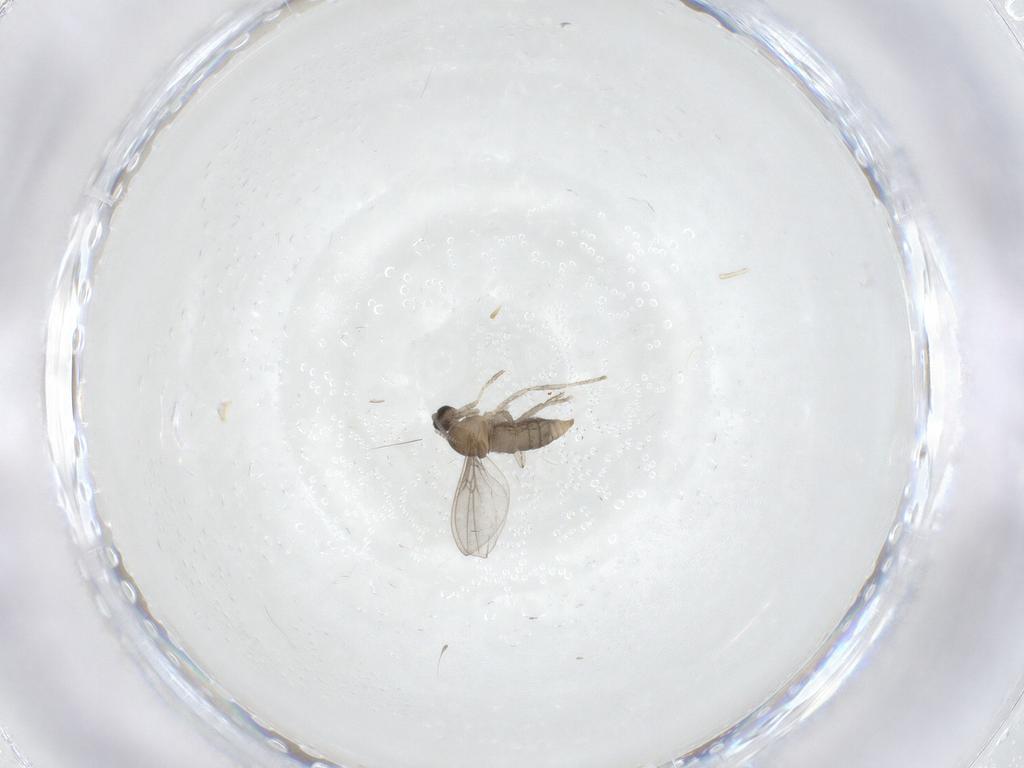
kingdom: Animalia
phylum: Arthropoda
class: Insecta
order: Diptera
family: Cecidomyiidae
